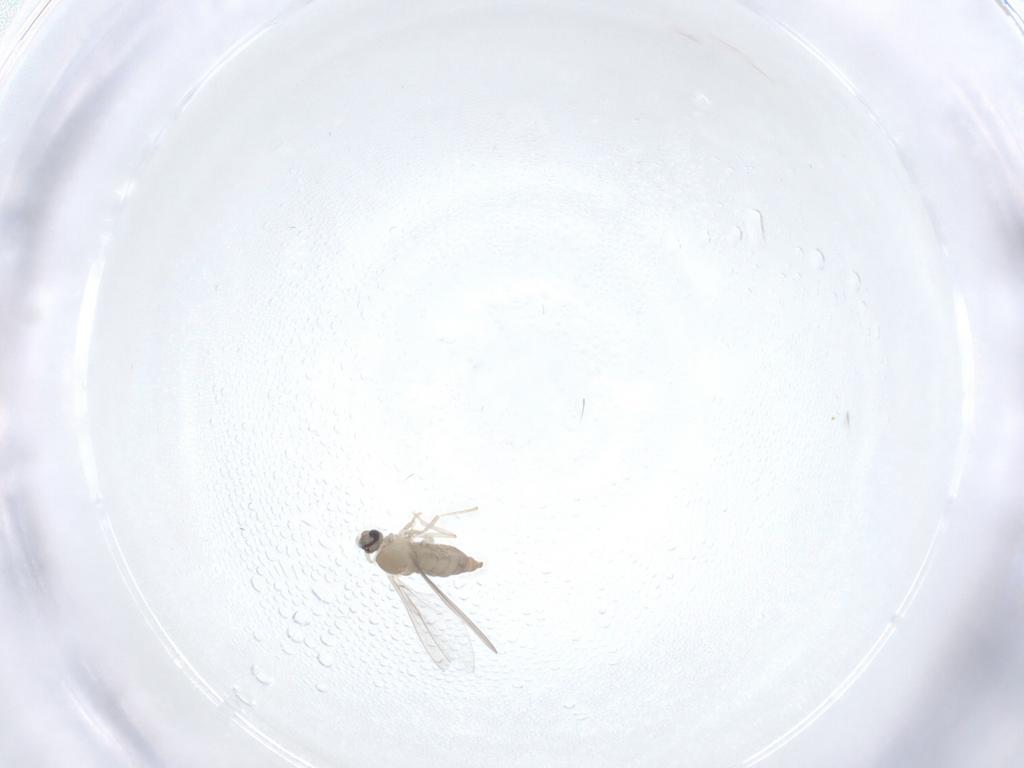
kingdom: Animalia
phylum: Arthropoda
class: Insecta
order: Diptera
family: Cecidomyiidae
